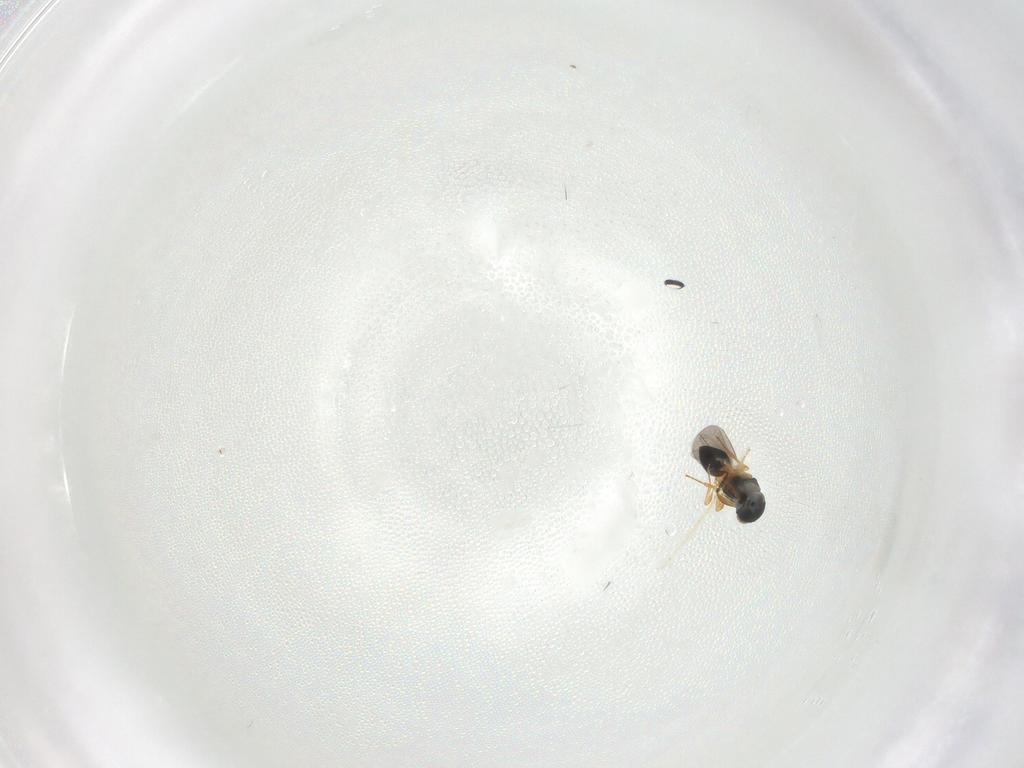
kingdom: Animalia
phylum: Arthropoda
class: Insecta
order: Hymenoptera
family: Platygastridae
